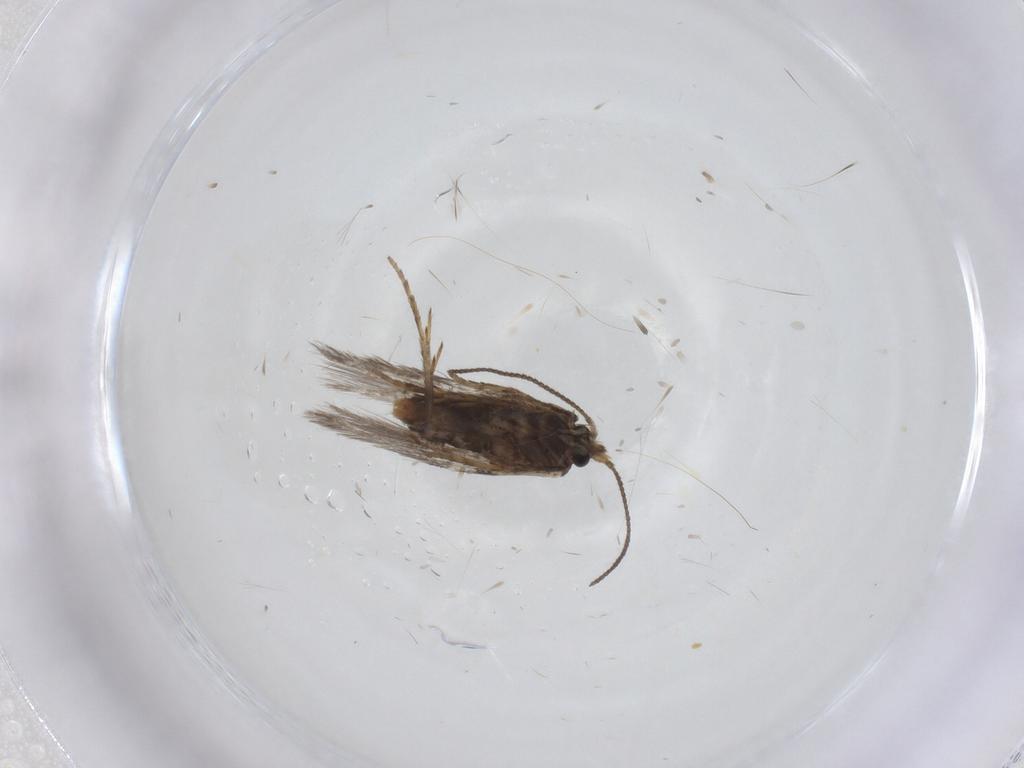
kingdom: Animalia
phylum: Arthropoda
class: Insecta
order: Lepidoptera
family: Nepticulidae
